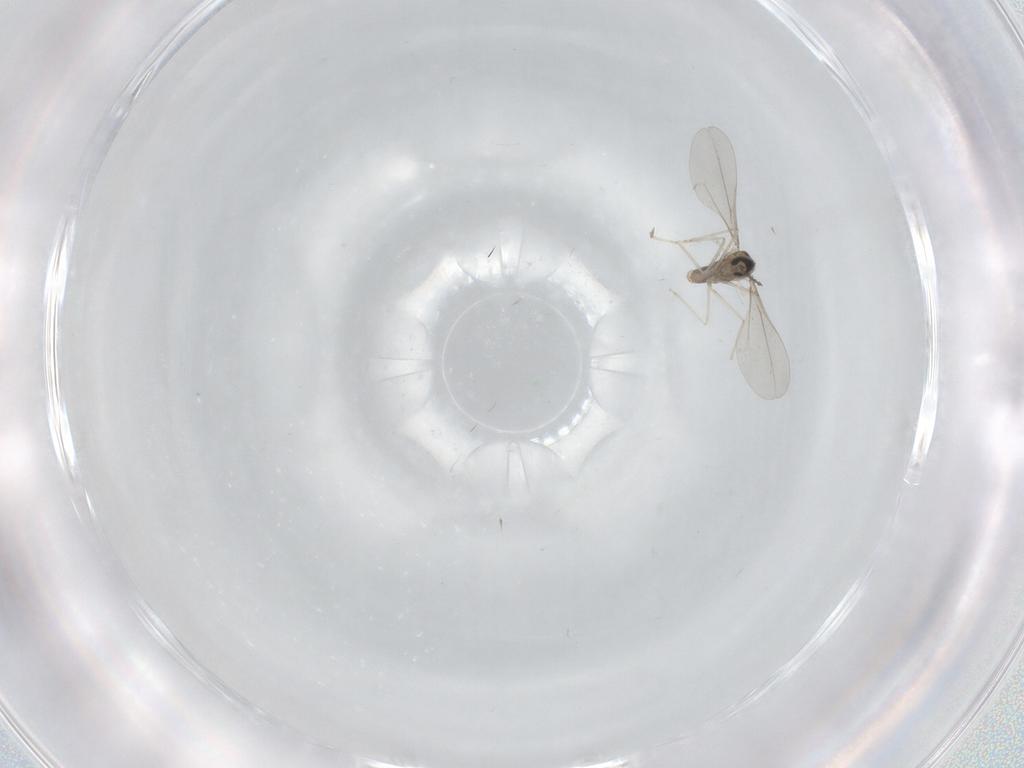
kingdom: Animalia
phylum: Arthropoda
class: Insecta
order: Diptera
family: Cecidomyiidae
